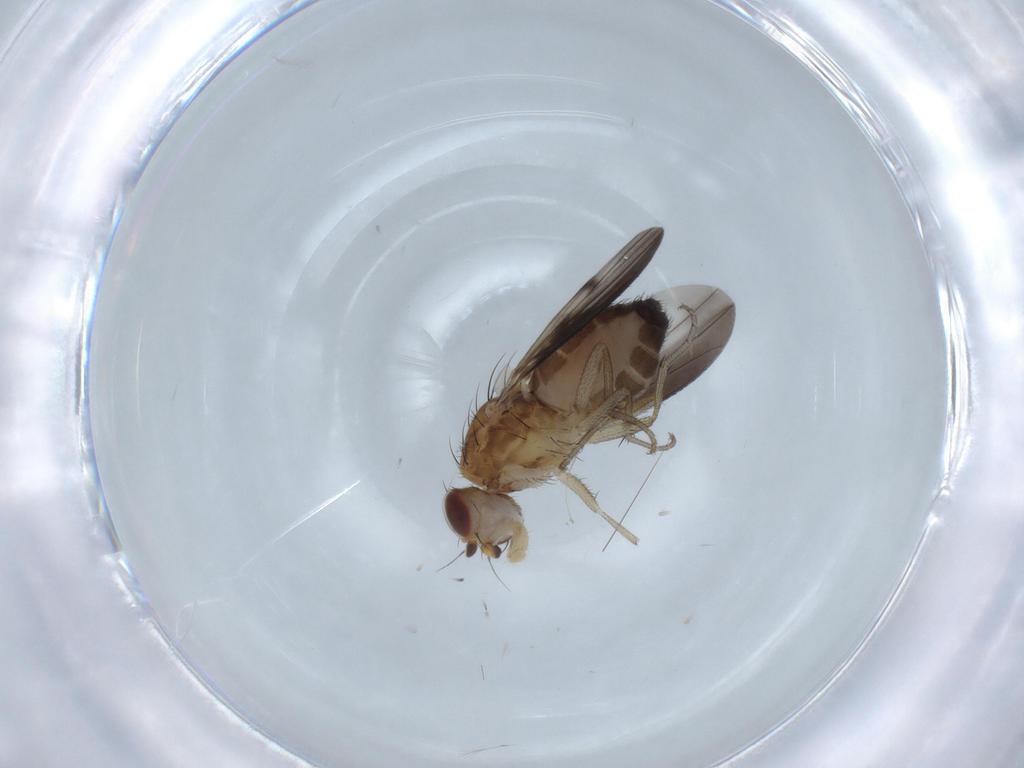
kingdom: Animalia
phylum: Arthropoda
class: Insecta
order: Diptera
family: Heleomyzidae
